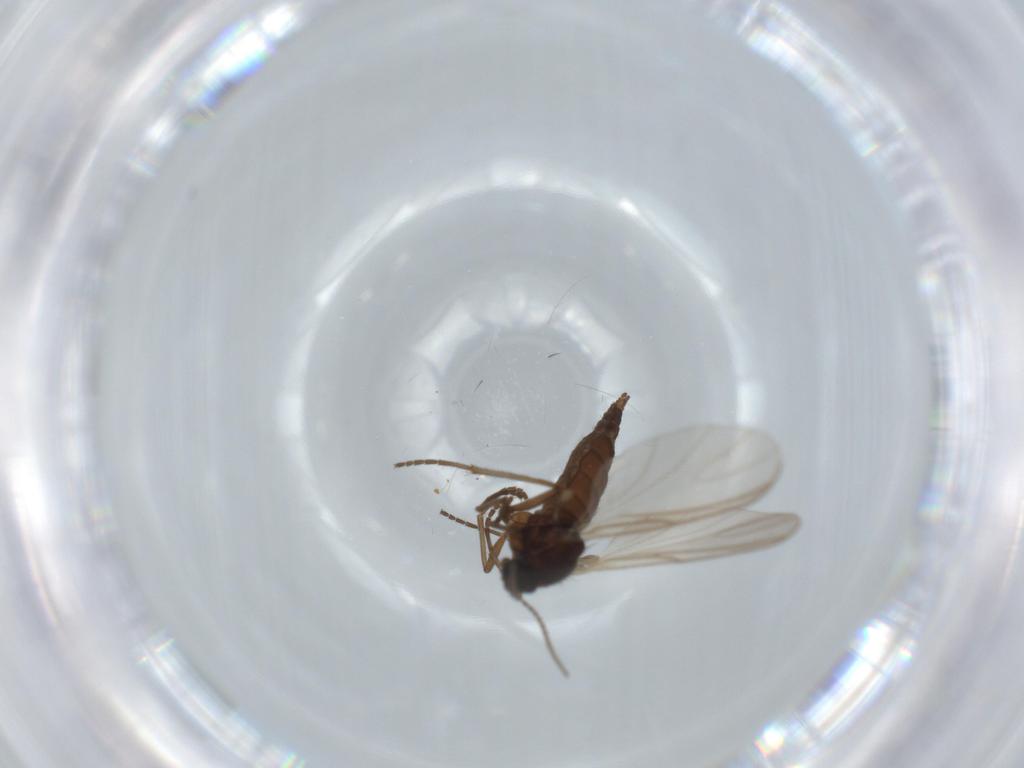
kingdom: Animalia
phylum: Arthropoda
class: Insecta
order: Diptera
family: Sciaridae
